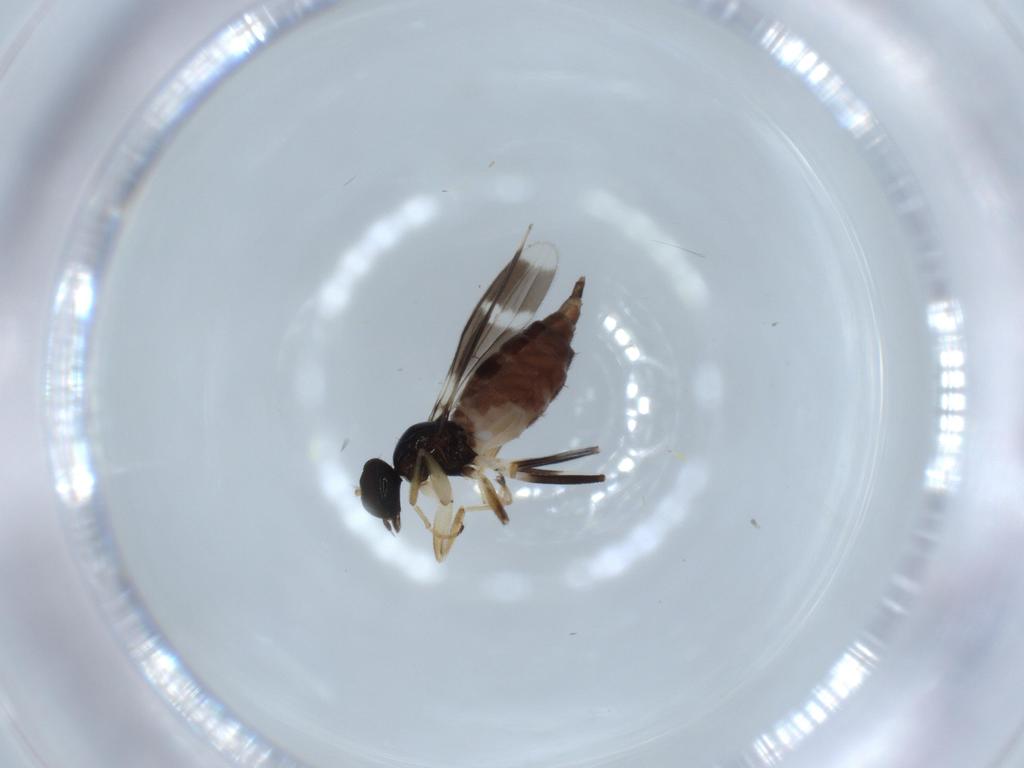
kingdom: Animalia
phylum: Arthropoda
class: Insecta
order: Diptera
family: Hybotidae
